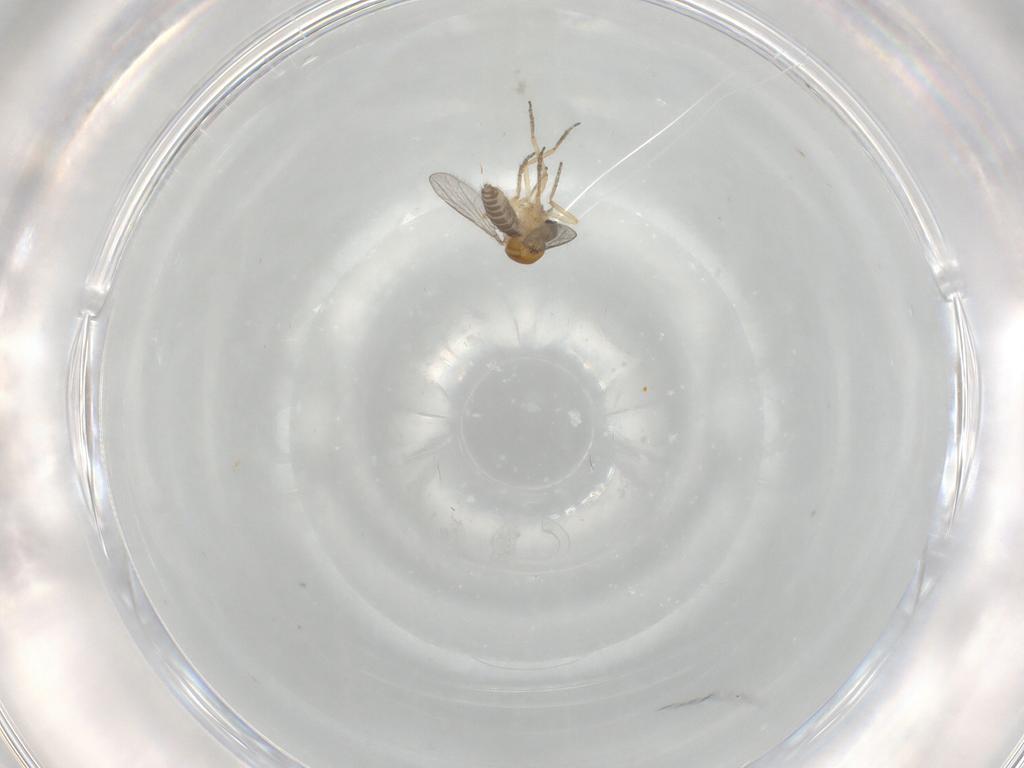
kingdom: Animalia
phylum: Arthropoda
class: Insecta
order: Diptera
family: Ceratopogonidae
